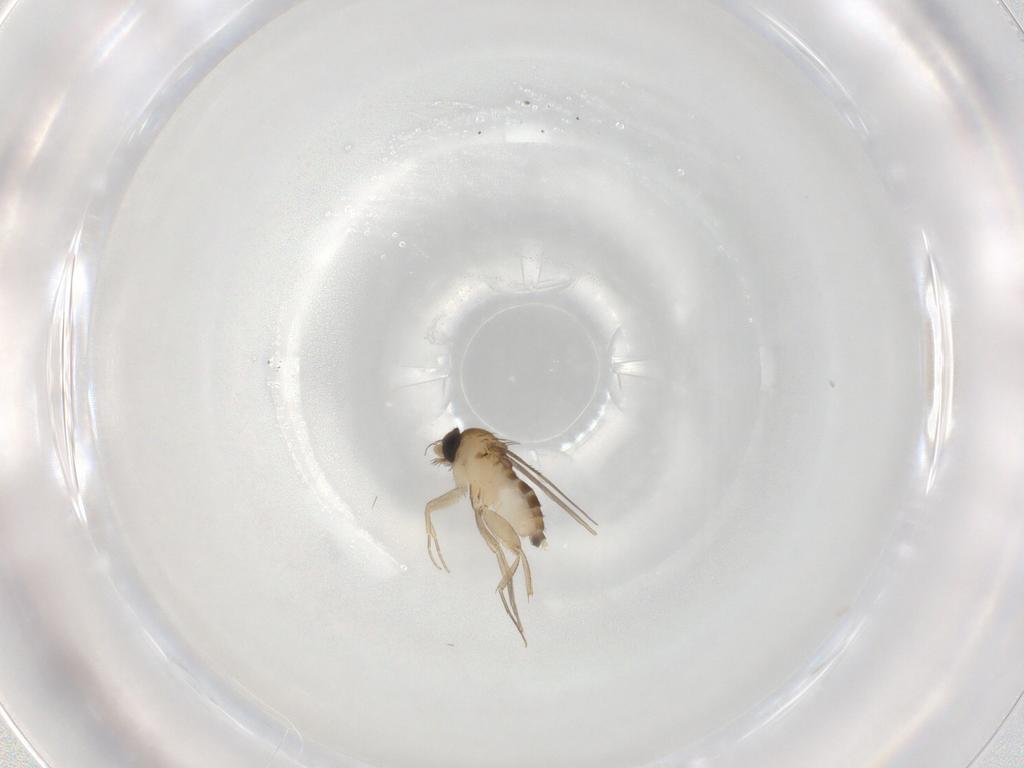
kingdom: Animalia
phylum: Arthropoda
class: Insecta
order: Diptera
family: Phoridae
